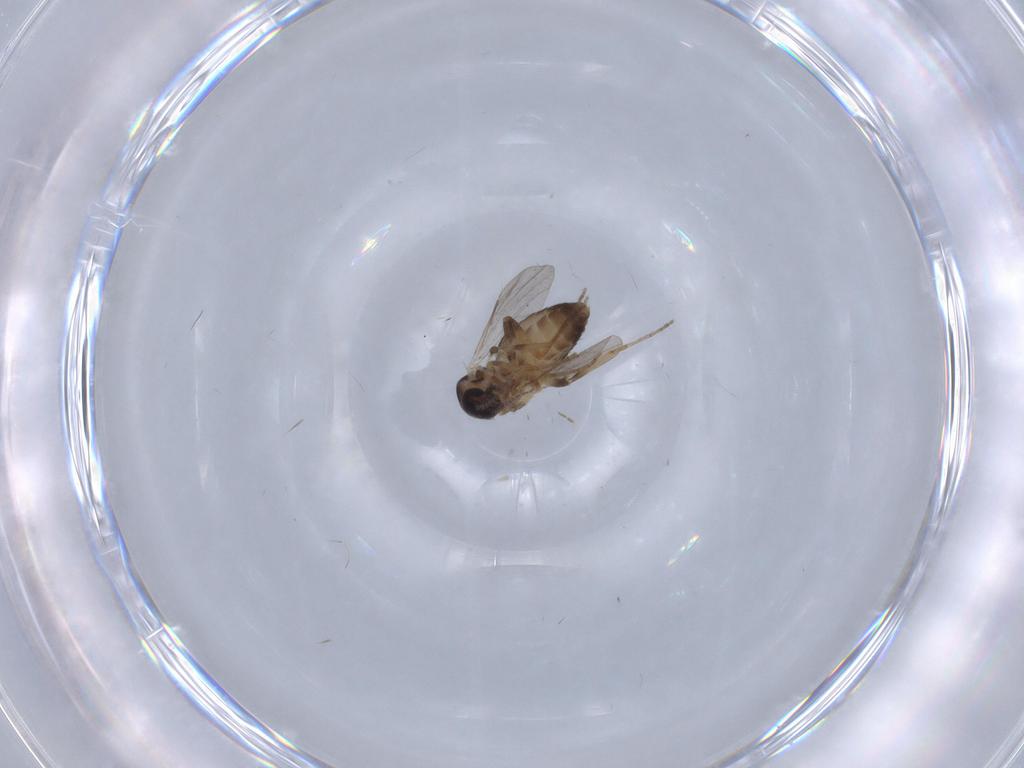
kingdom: Animalia
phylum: Arthropoda
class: Insecta
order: Diptera
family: Ceratopogonidae
